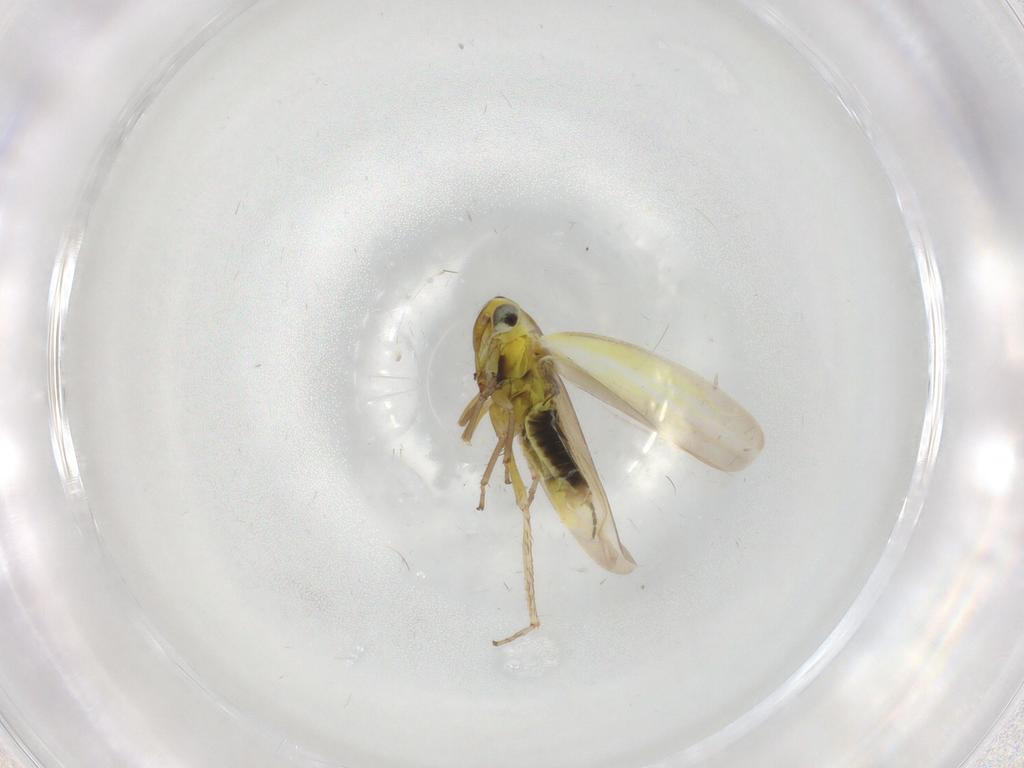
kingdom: Animalia
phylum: Arthropoda
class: Insecta
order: Hemiptera
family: Cicadellidae
